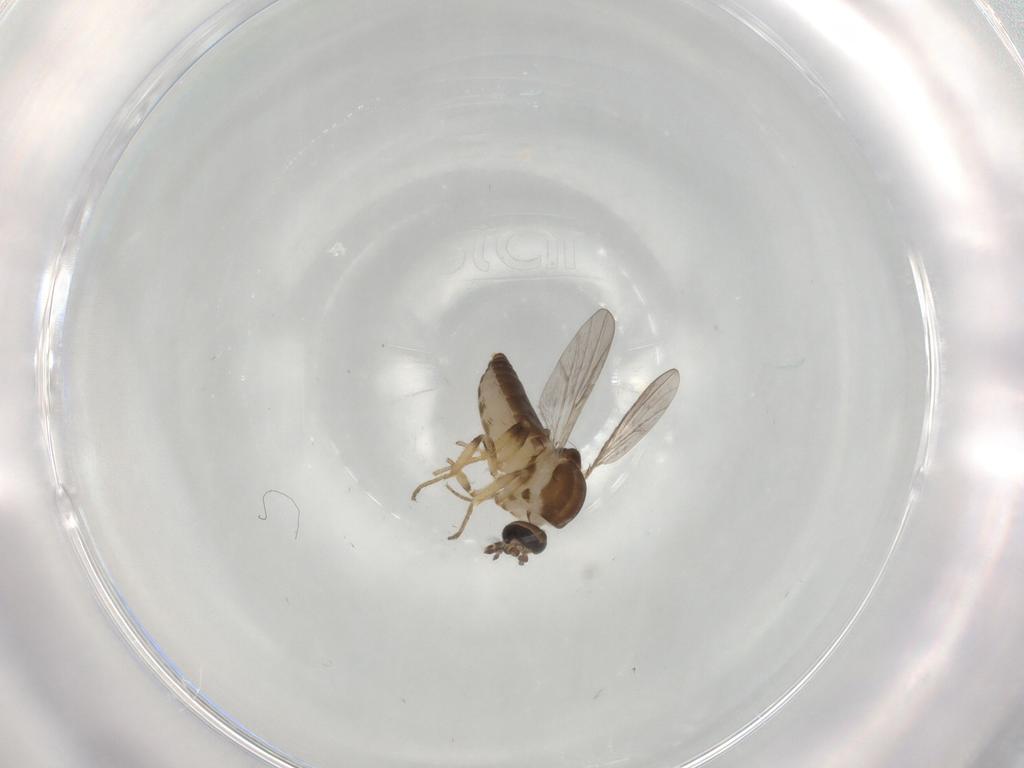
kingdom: Animalia
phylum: Arthropoda
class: Insecta
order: Diptera
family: Ceratopogonidae
